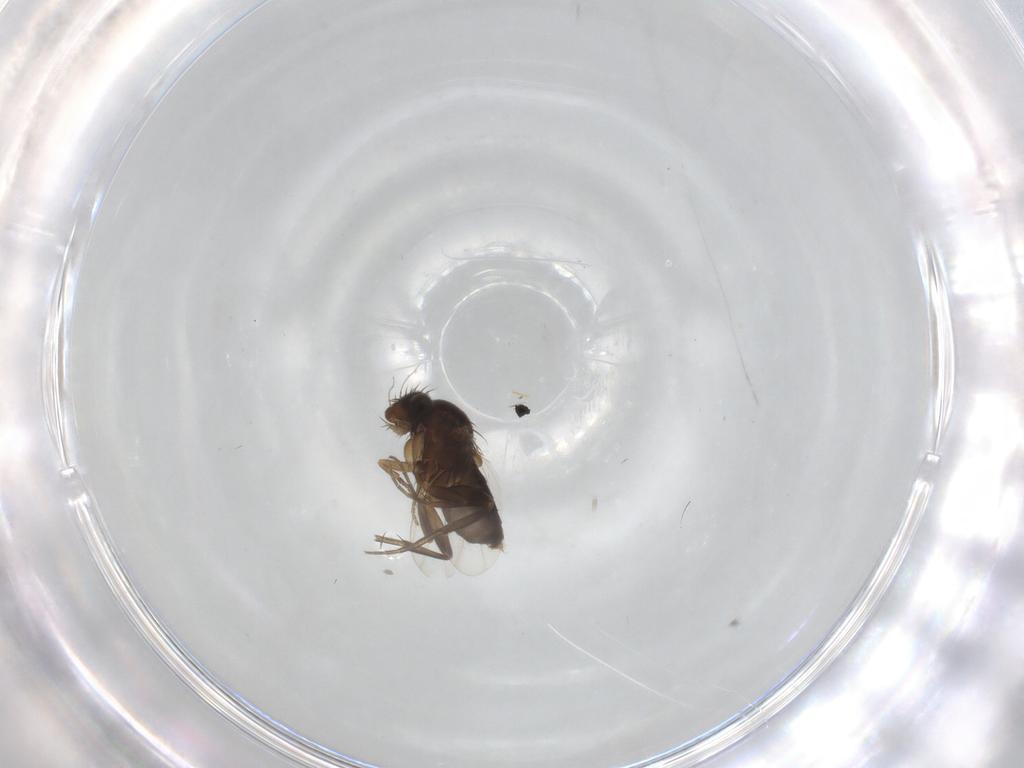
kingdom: Animalia
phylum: Arthropoda
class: Insecta
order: Diptera
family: Phoridae
